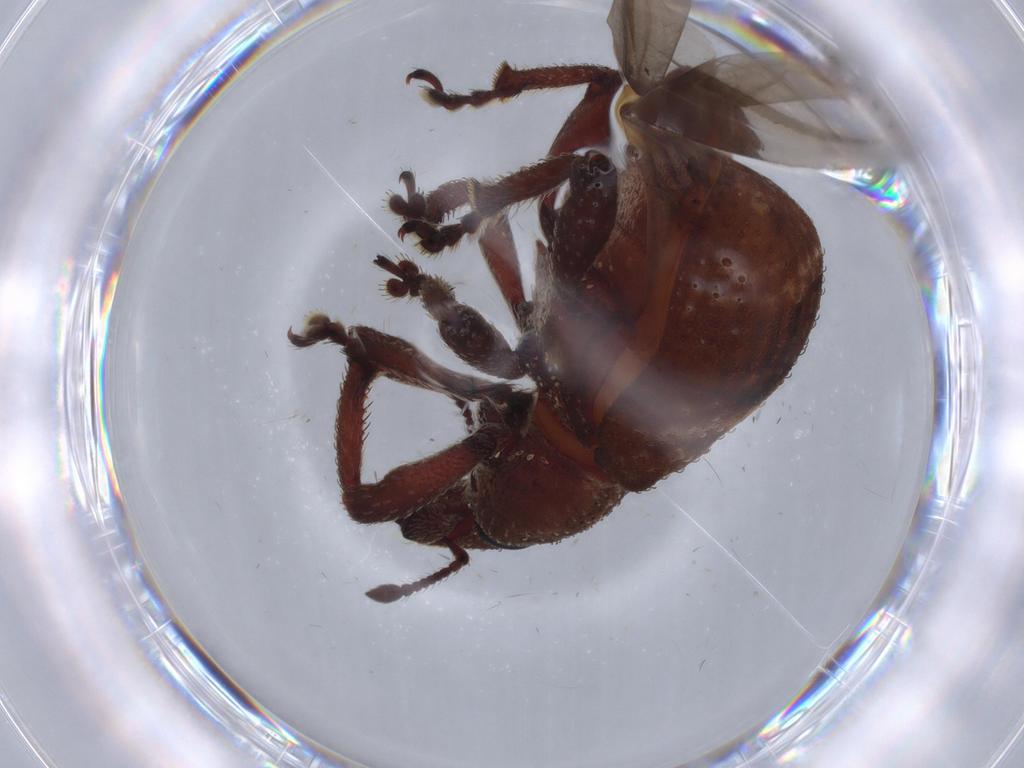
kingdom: Animalia
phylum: Arthropoda
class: Insecta
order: Coleoptera
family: Curculionidae
